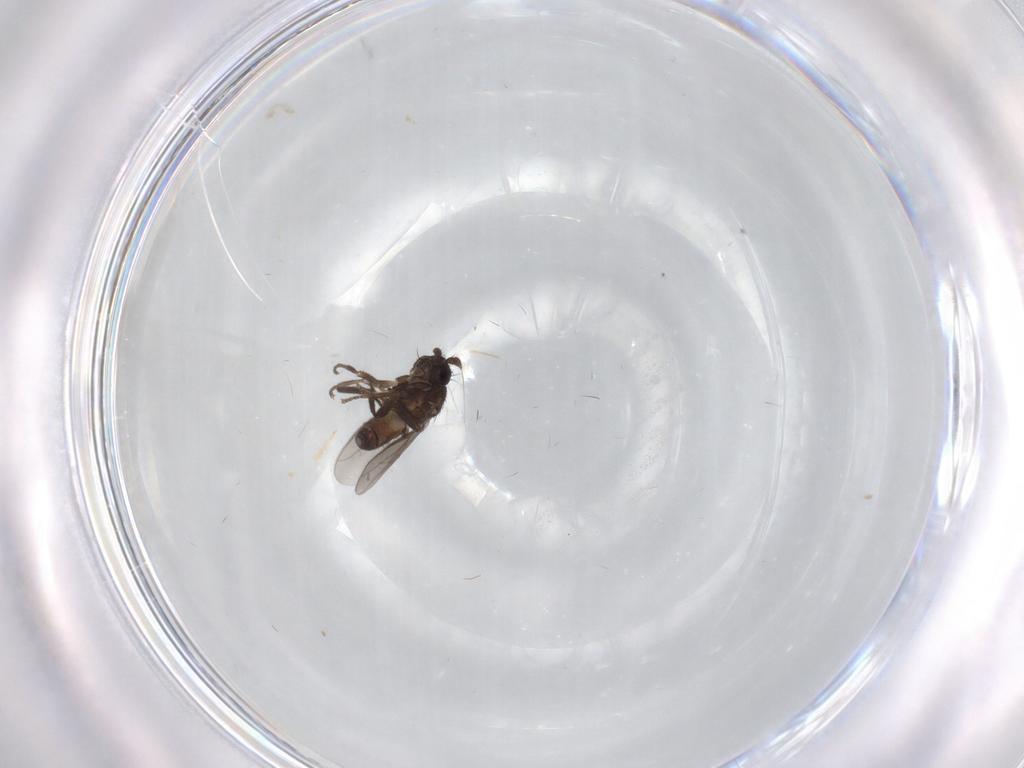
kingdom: Animalia
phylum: Arthropoda
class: Insecta
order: Diptera
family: Sphaeroceridae
